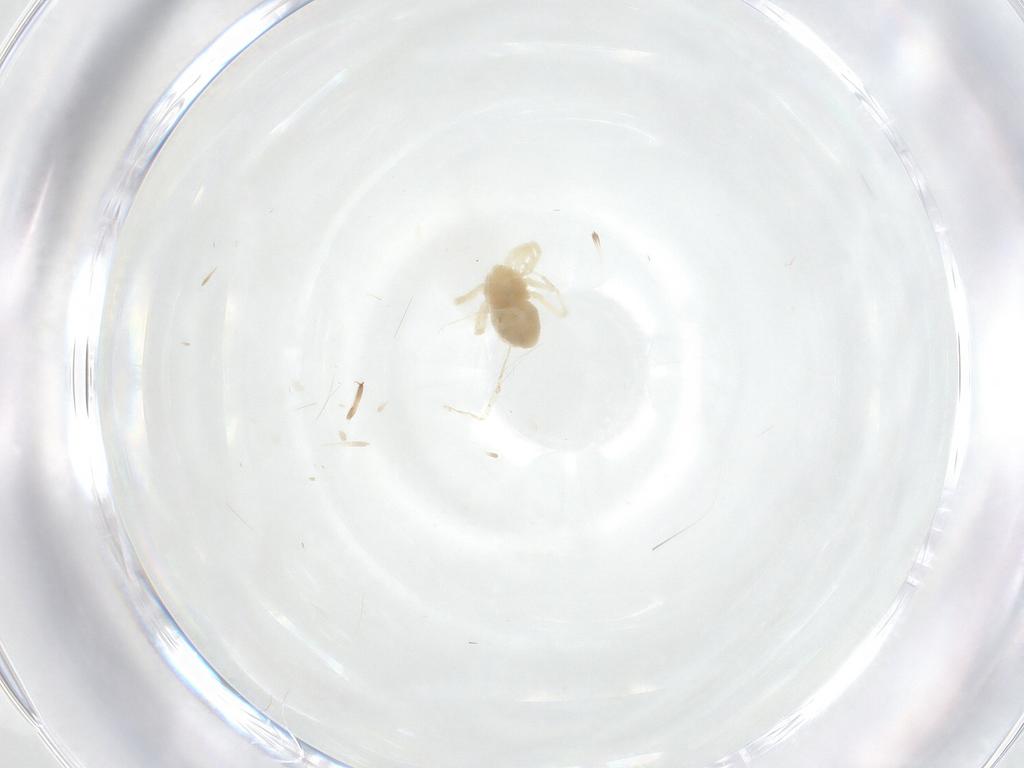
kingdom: Animalia
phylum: Arthropoda
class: Arachnida
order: Trombidiformes
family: Anystidae
